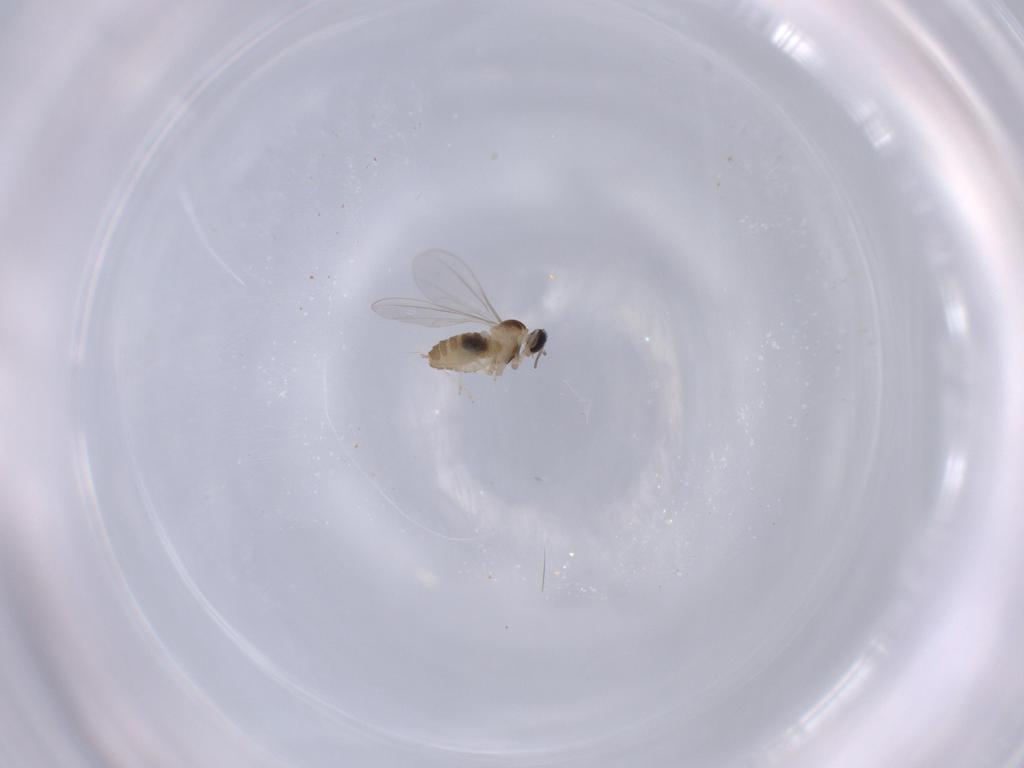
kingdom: Animalia
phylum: Arthropoda
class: Insecta
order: Diptera
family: Cecidomyiidae
